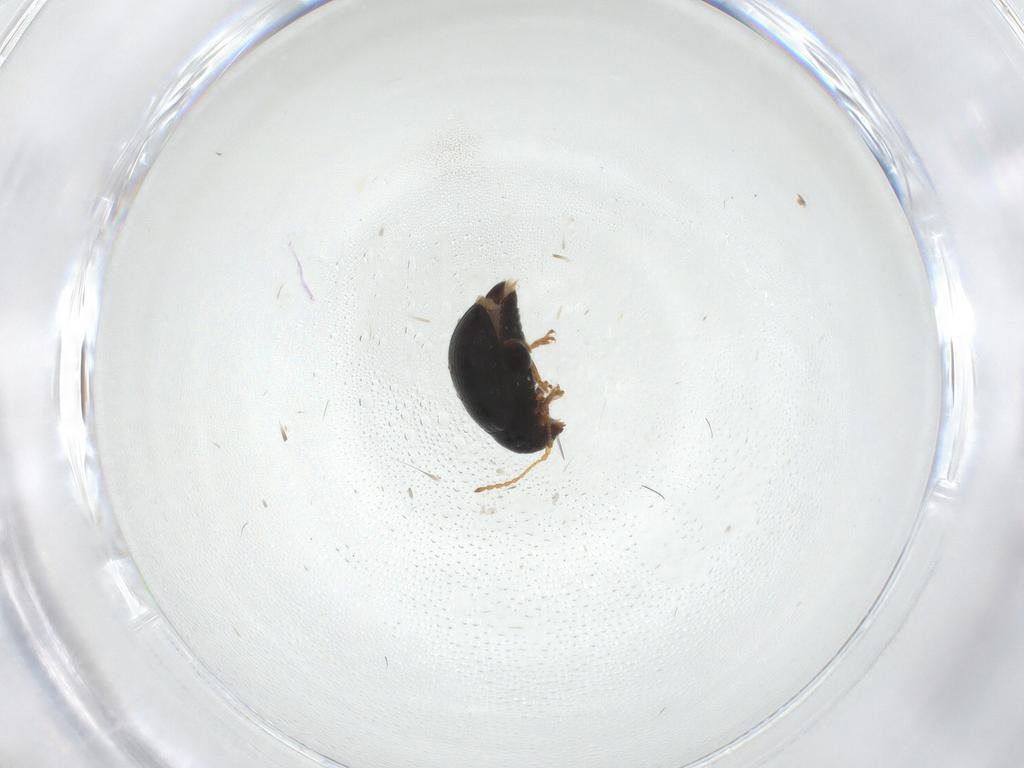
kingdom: Animalia
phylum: Arthropoda
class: Insecta
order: Coleoptera
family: Chrysomelidae
